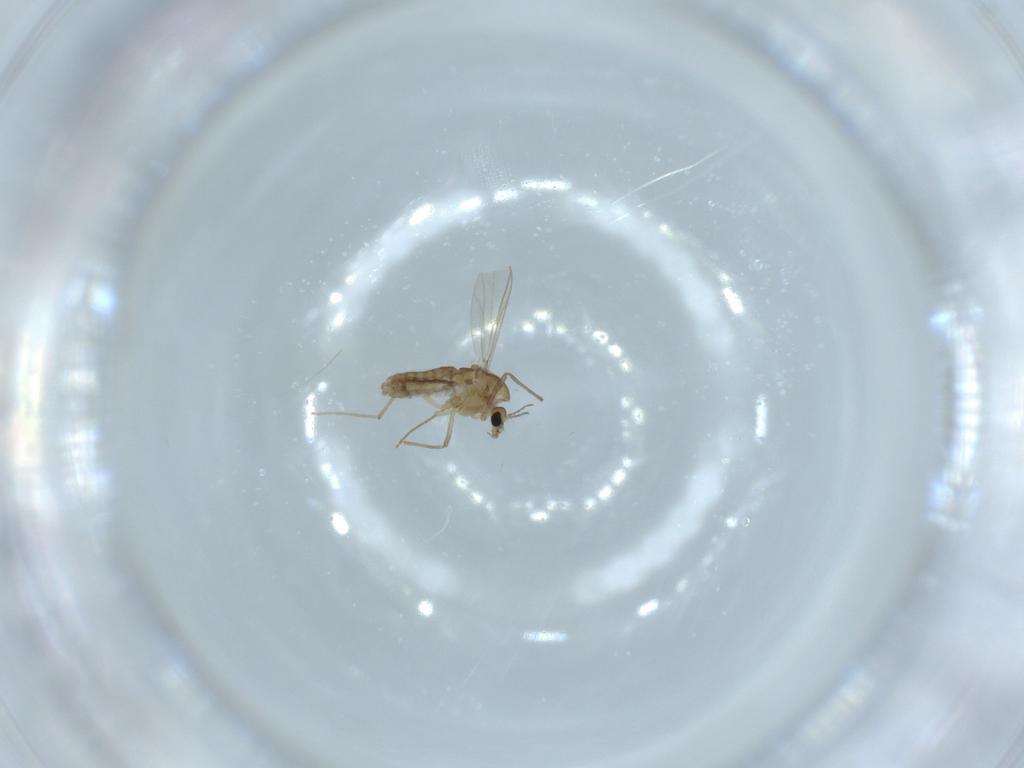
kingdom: Animalia
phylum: Arthropoda
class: Insecta
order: Diptera
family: Chironomidae
